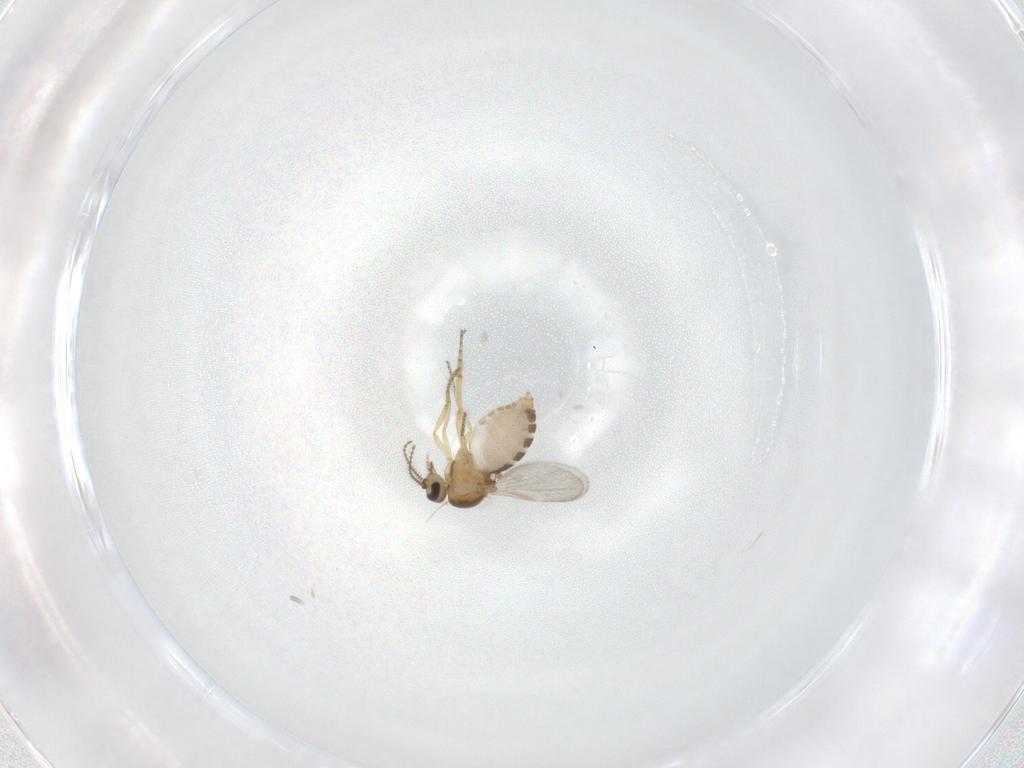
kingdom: Animalia
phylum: Arthropoda
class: Insecta
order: Diptera
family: Ceratopogonidae
